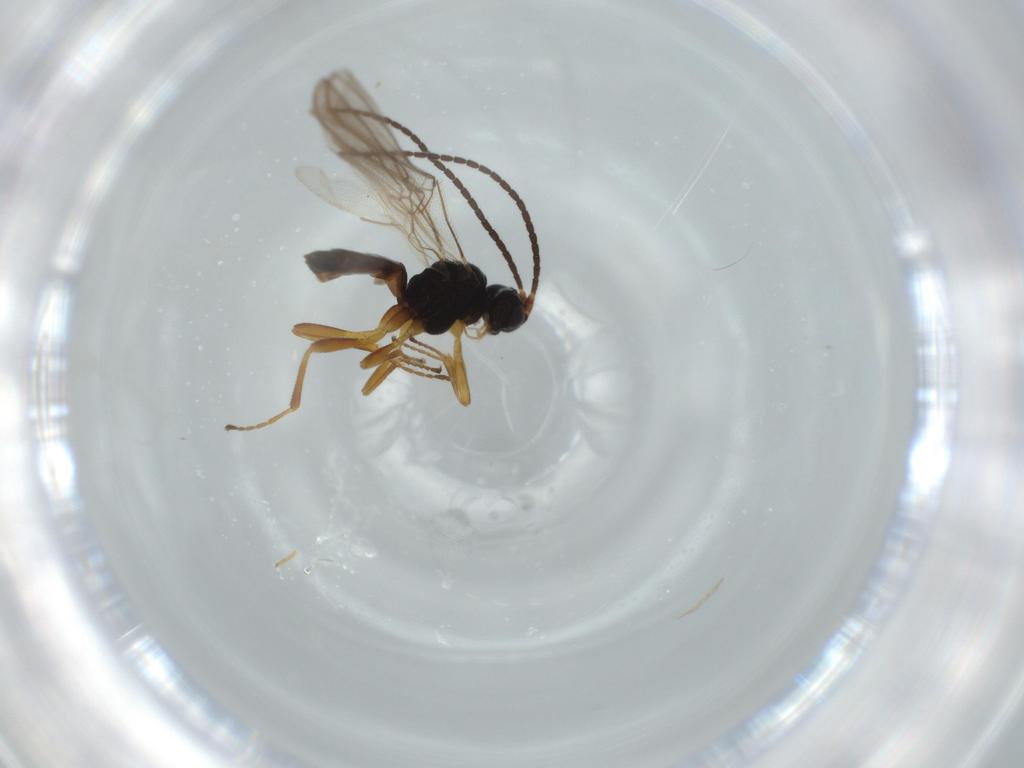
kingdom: Animalia
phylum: Arthropoda
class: Insecta
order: Hymenoptera
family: Braconidae
